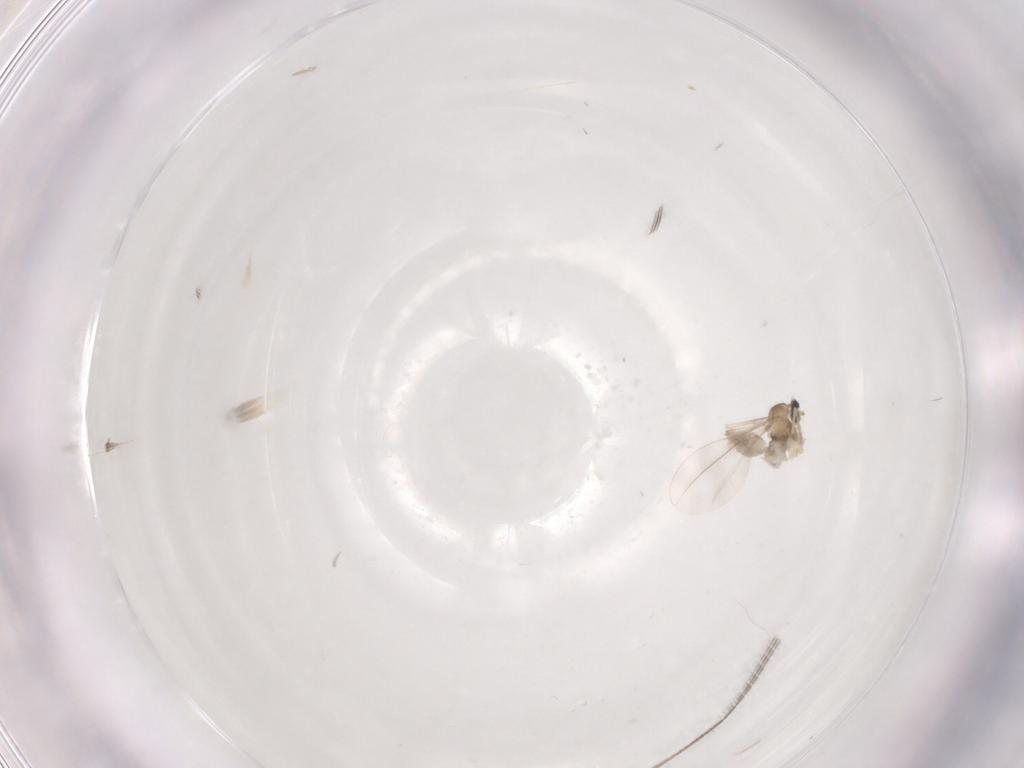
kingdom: Animalia
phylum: Arthropoda
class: Insecta
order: Diptera
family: Cecidomyiidae
